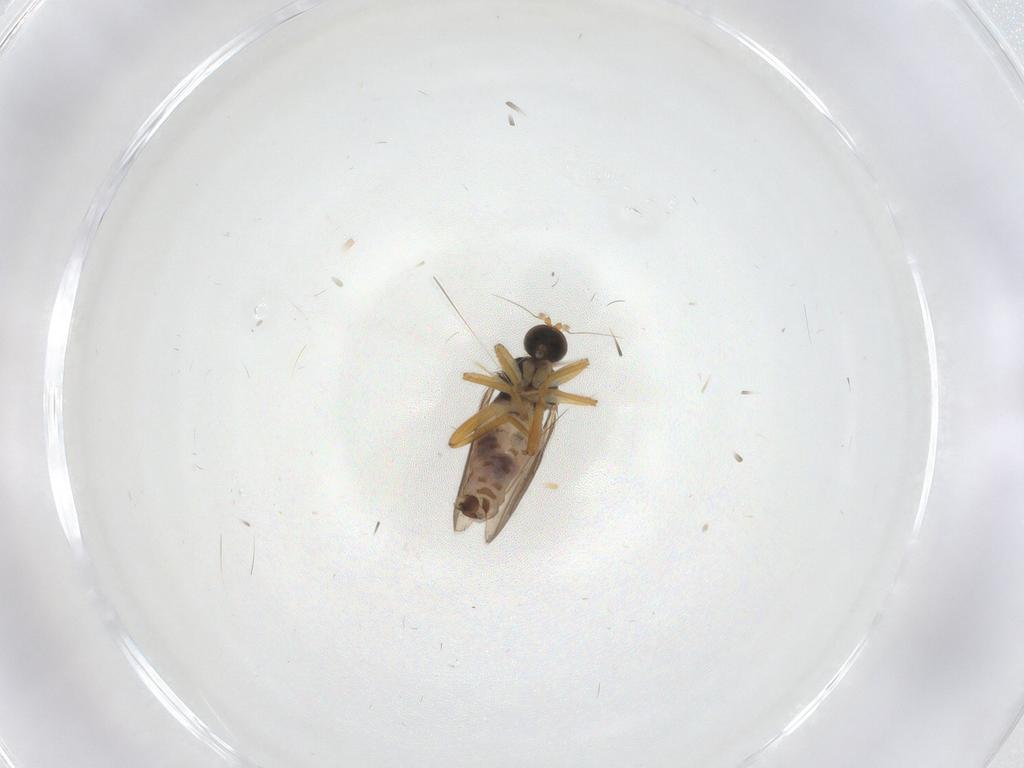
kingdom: Animalia
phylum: Arthropoda
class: Insecta
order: Diptera
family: Hybotidae
